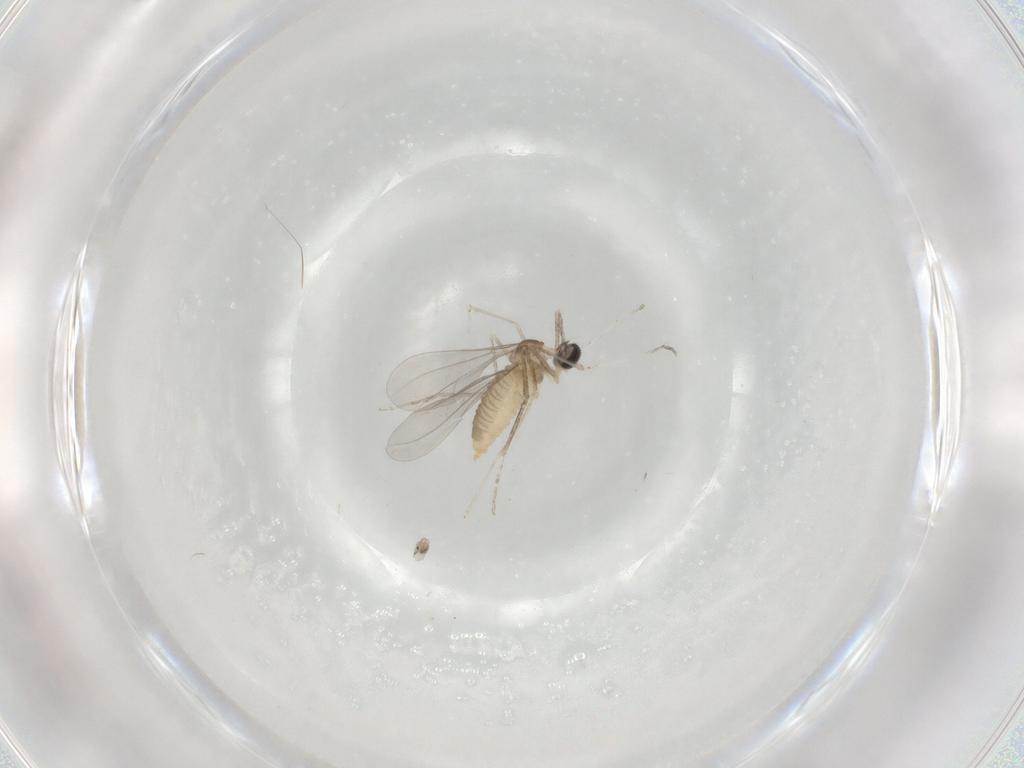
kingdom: Animalia
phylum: Arthropoda
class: Insecta
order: Diptera
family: Cecidomyiidae
